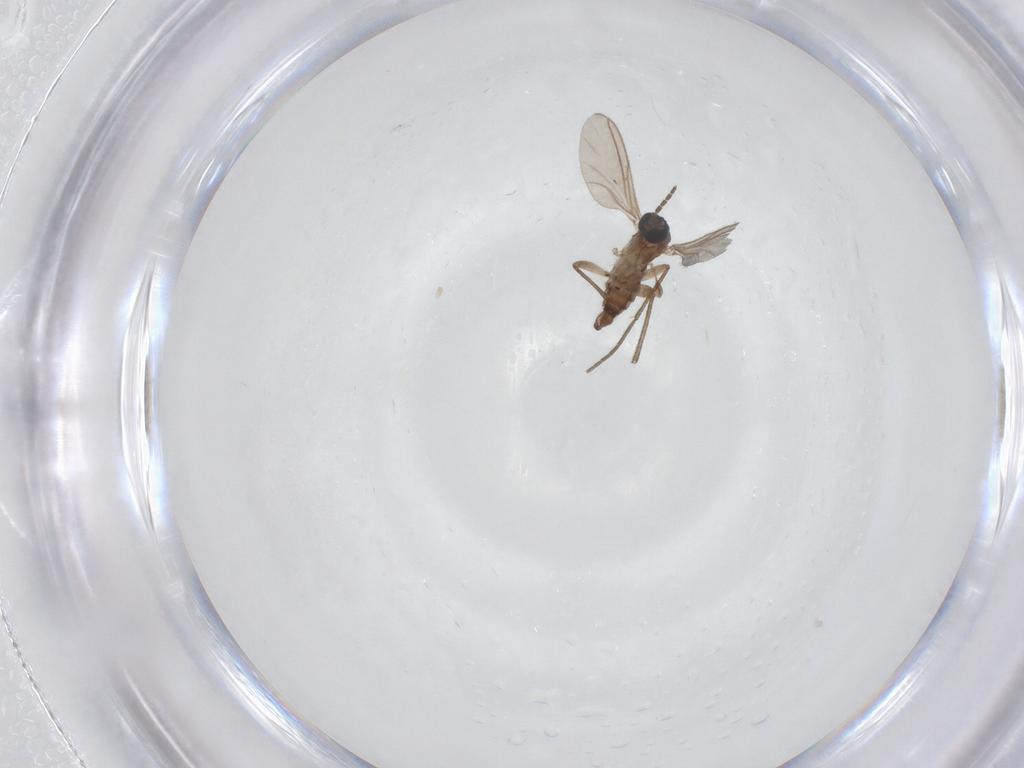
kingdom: Animalia
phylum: Arthropoda
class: Insecta
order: Diptera
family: Sciaridae
